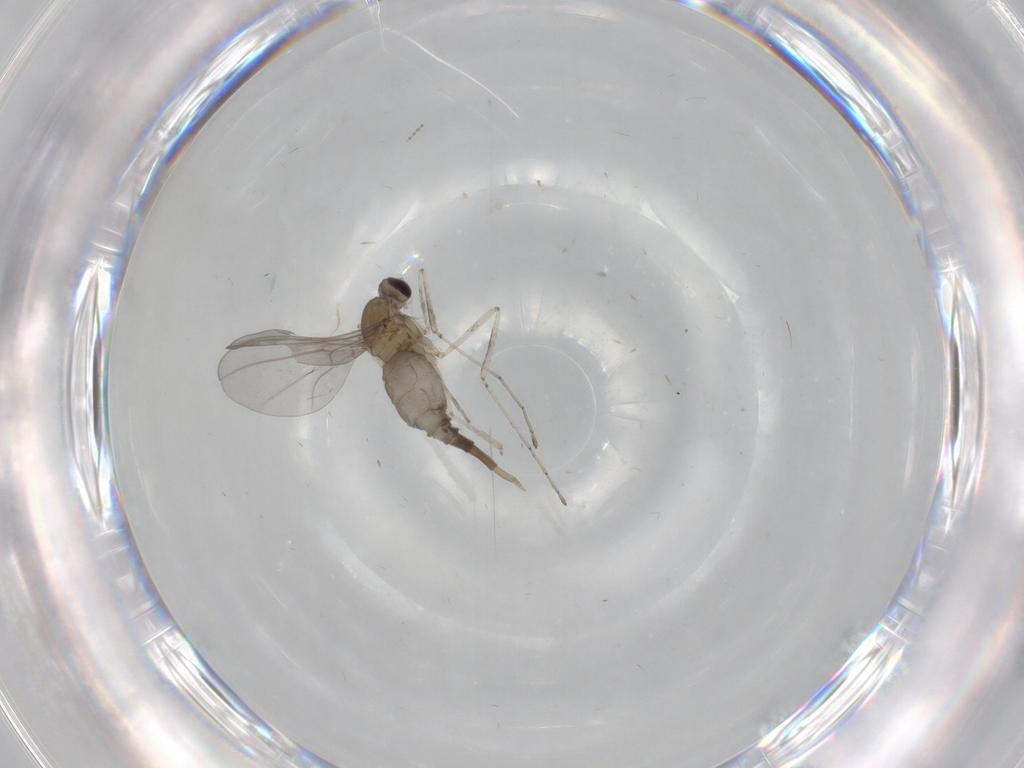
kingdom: Animalia
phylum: Arthropoda
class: Insecta
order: Diptera
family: Cecidomyiidae
